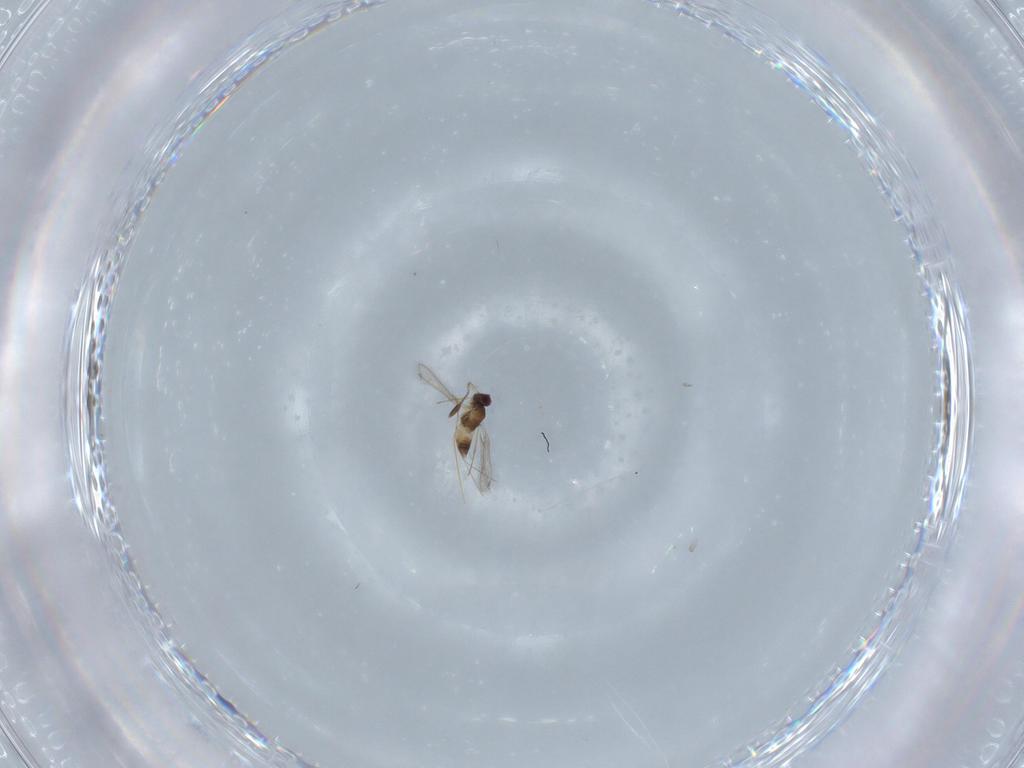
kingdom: Animalia
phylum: Arthropoda
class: Insecta
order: Hymenoptera
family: Mymaridae
